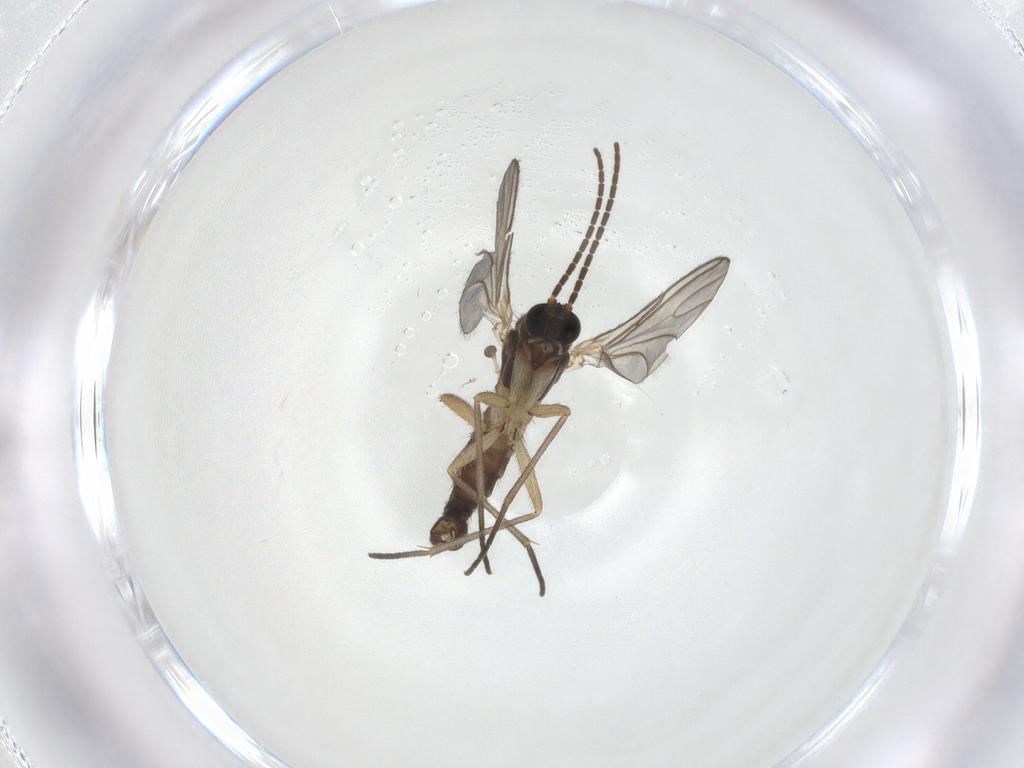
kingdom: Animalia
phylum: Arthropoda
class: Insecta
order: Diptera
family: Sciaridae
